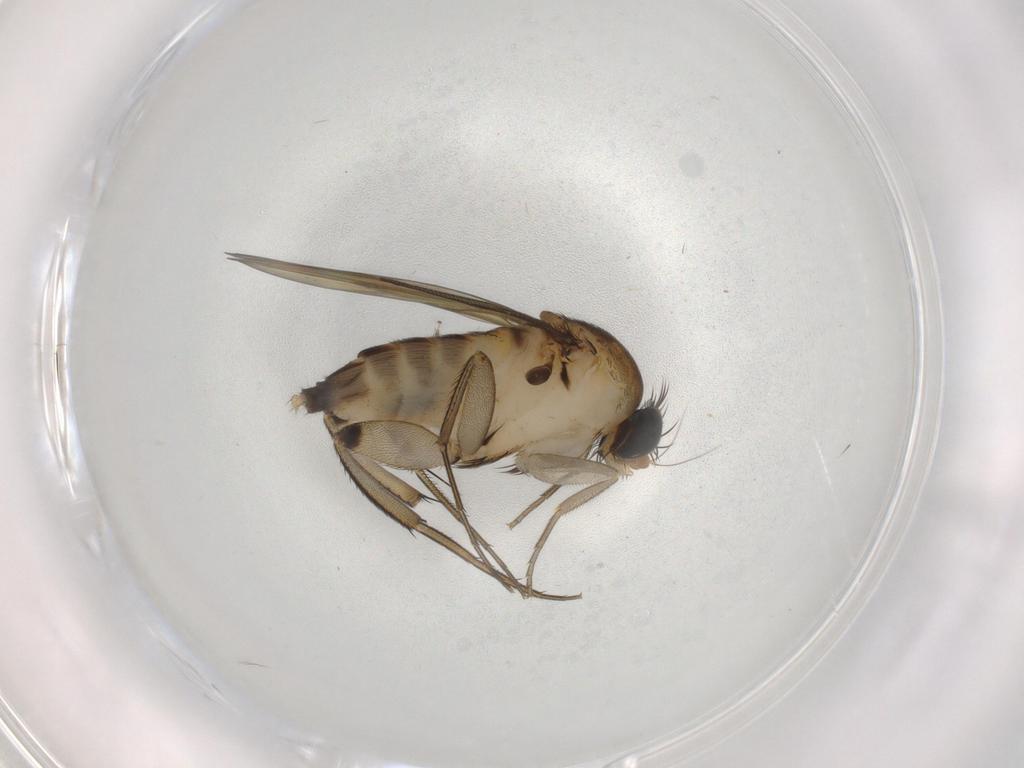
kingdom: Animalia
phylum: Arthropoda
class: Insecta
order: Diptera
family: Phoridae
